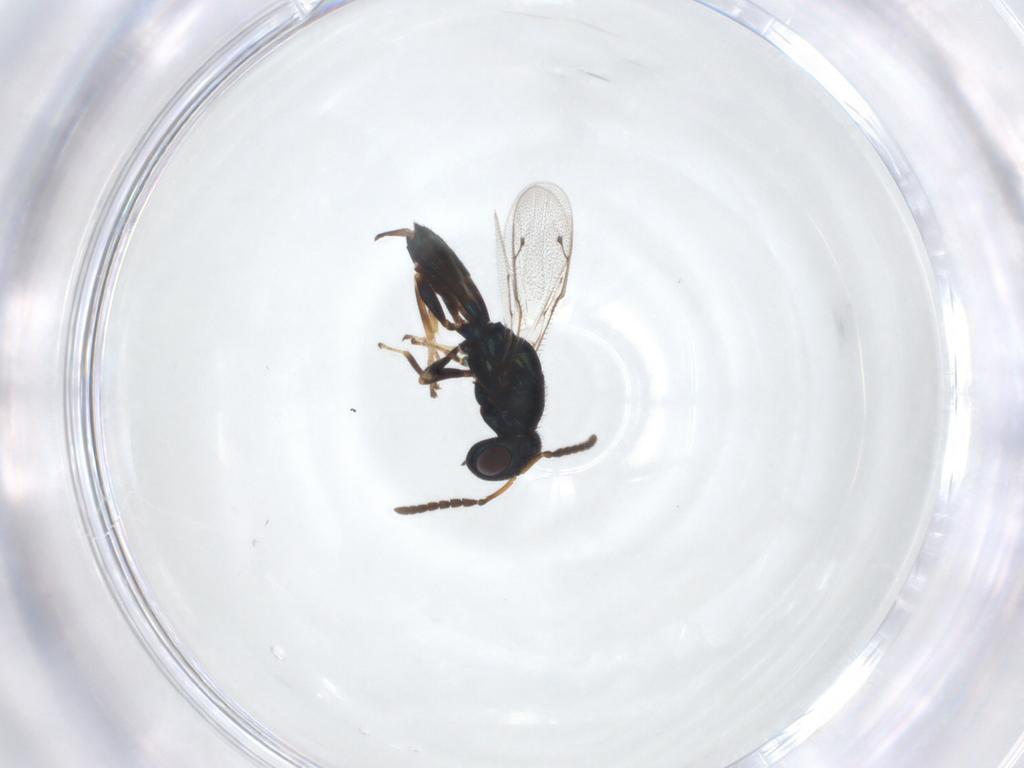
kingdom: Animalia
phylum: Arthropoda
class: Insecta
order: Hymenoptera
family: Pteromalidae
